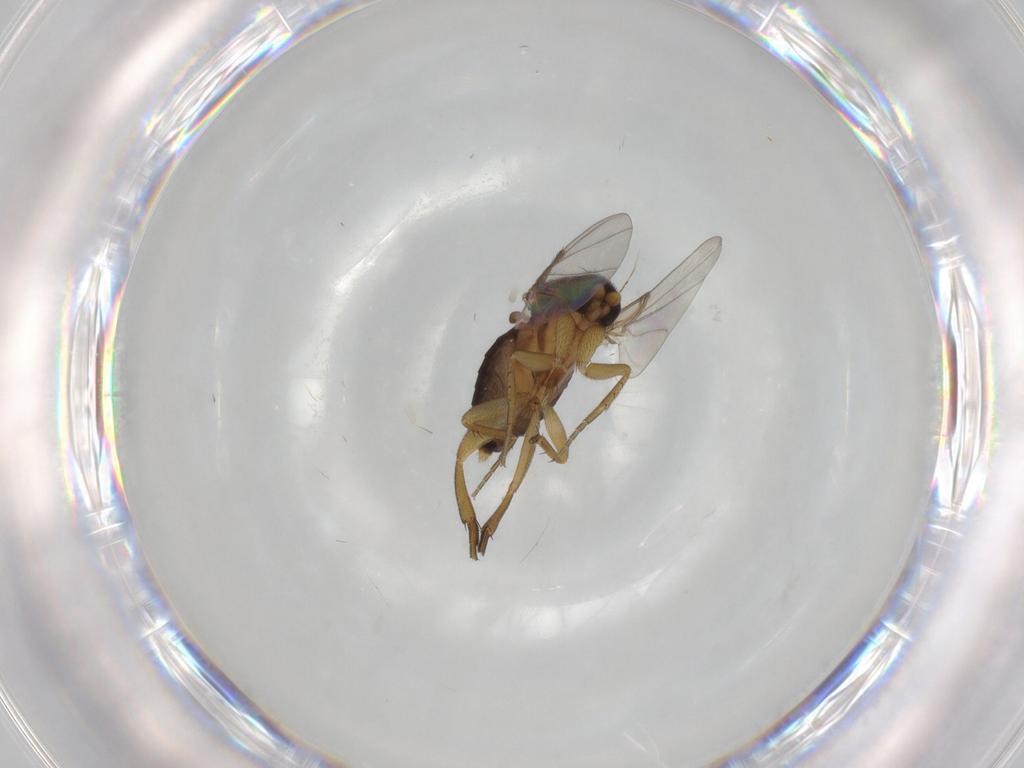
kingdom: Animalia
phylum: Arthropoda
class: Insecta
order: Diptera
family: Phoridae
